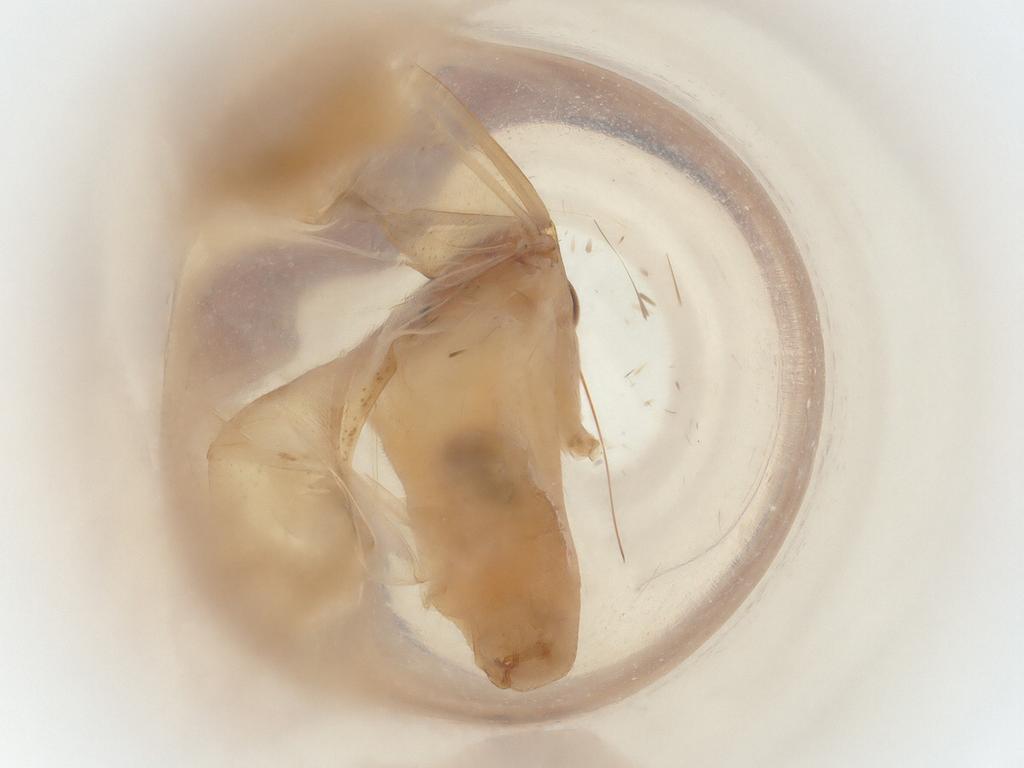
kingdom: Animalia
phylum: Arthropoda
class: Insecta
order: Hemiptera
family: Miridae
